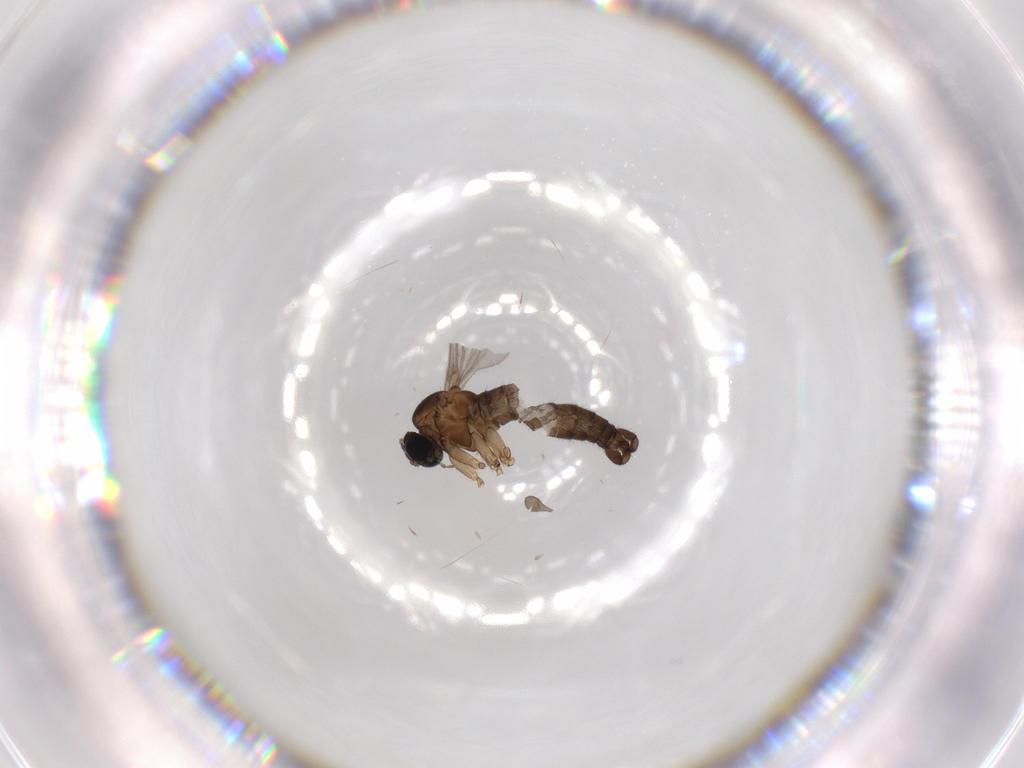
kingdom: Animalia
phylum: Arthropoda
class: Insecta
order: Diptera
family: Sciaridae
